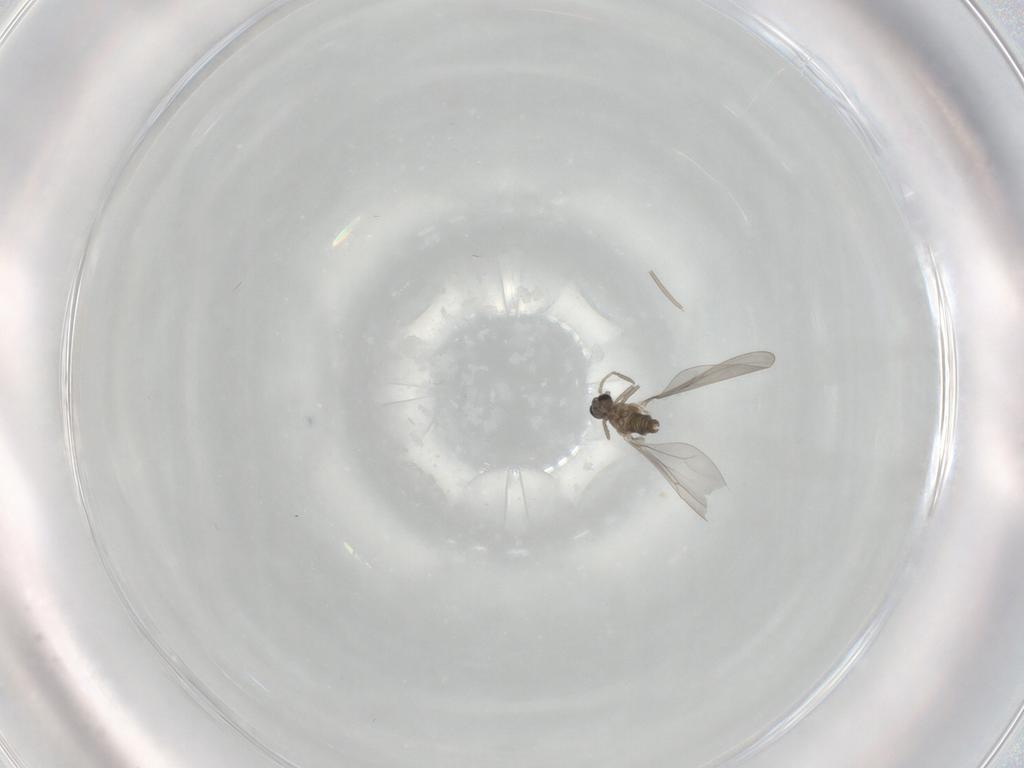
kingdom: Animalia
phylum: Arthropoda
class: Insecta
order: Diptera
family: Cecidomyiidae
